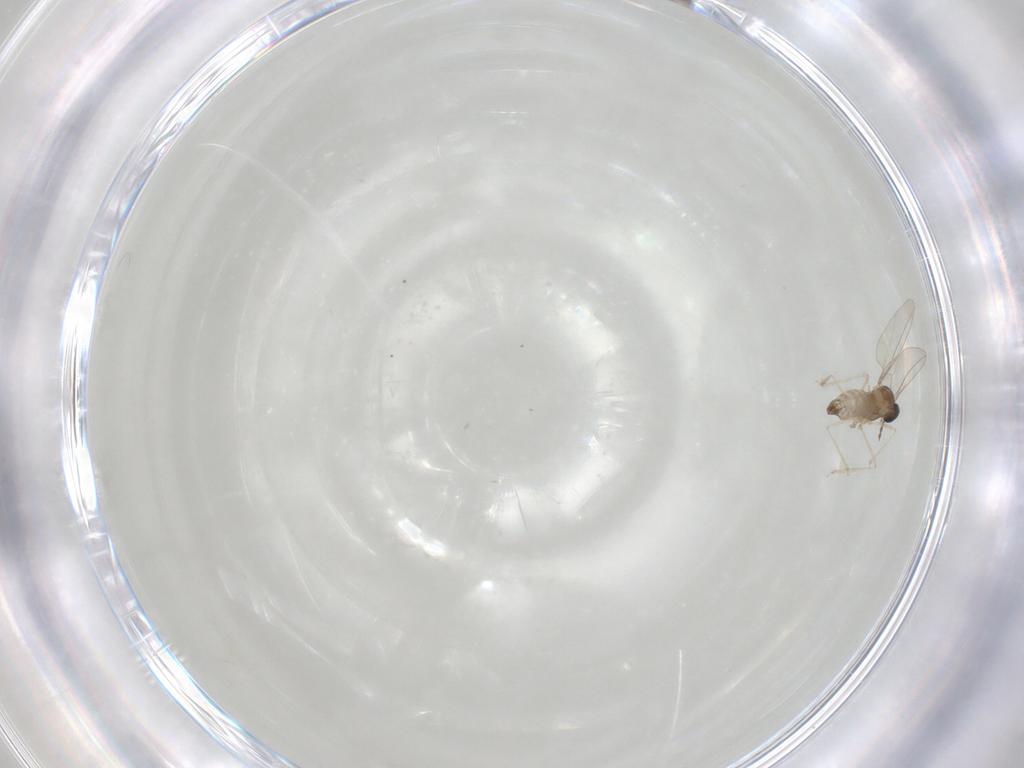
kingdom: Animalia
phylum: Arthropoda
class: Insecta
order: Diptera
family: Cecidomyiidae
